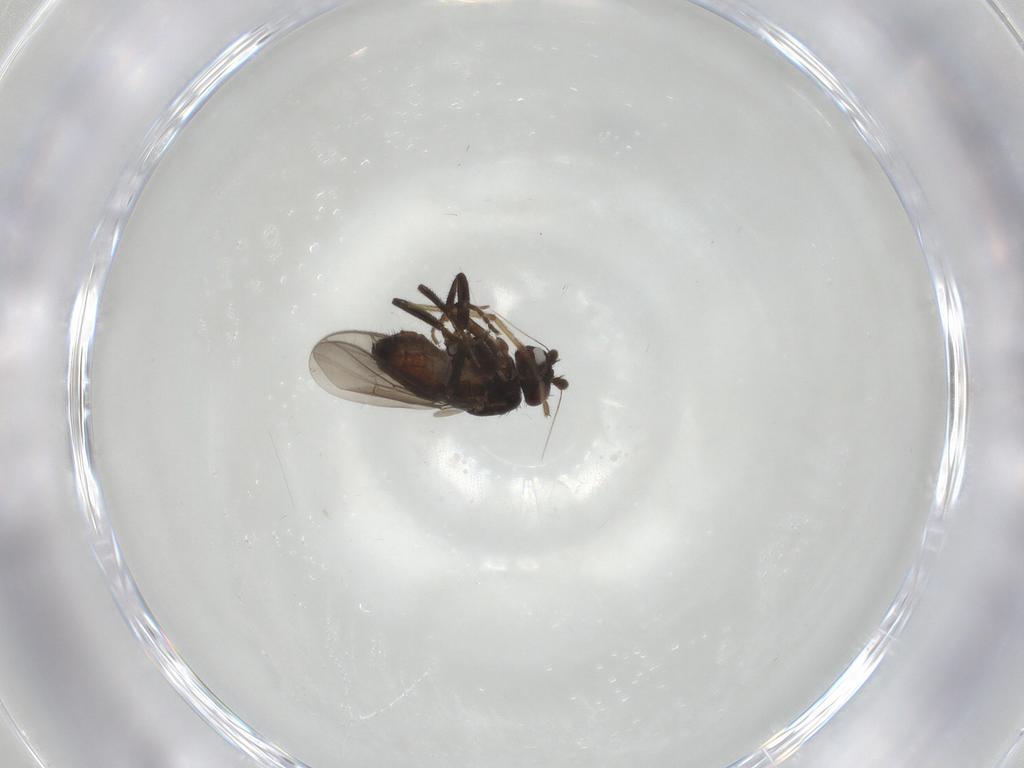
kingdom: Animalia
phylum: Arthropoda
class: Insecta
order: Diptera
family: Sphaeroceridae
